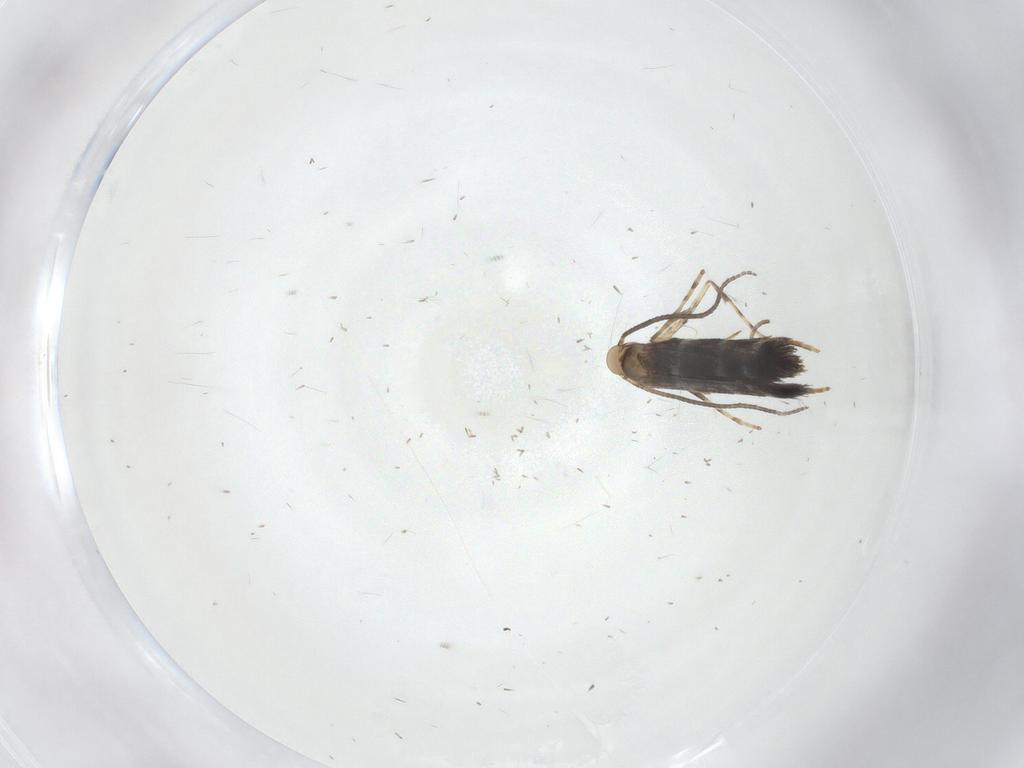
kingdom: Animalia
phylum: Arthropoda
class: Insecta
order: Lepidoptera
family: Gracillariidae
